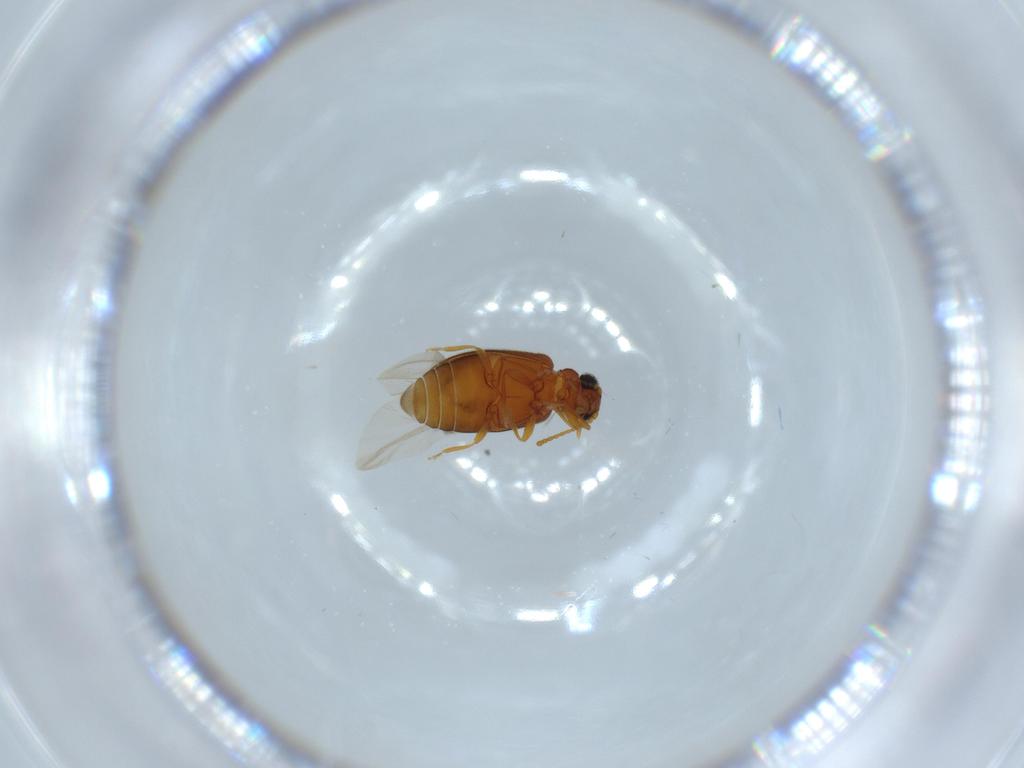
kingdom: Animalia
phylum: Arthropoda
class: Insecta
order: Coleoptera
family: Aderidae
